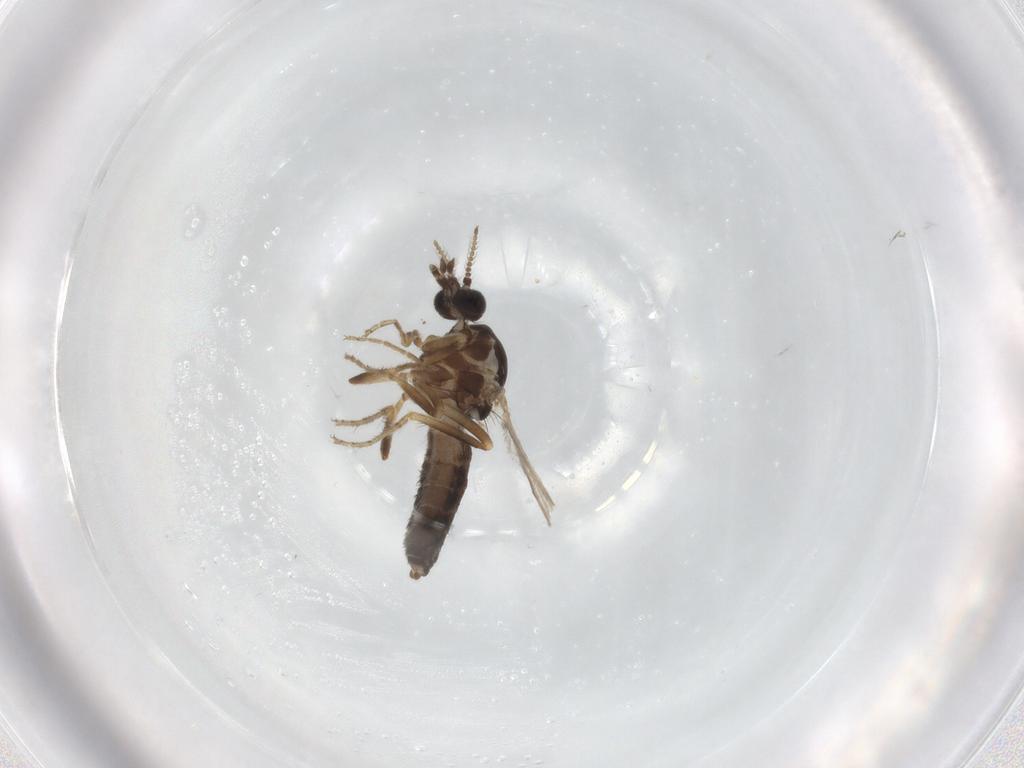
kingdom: Animalia
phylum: Arthropoda
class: Insecta
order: Diptera
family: Ceratopogonidae
